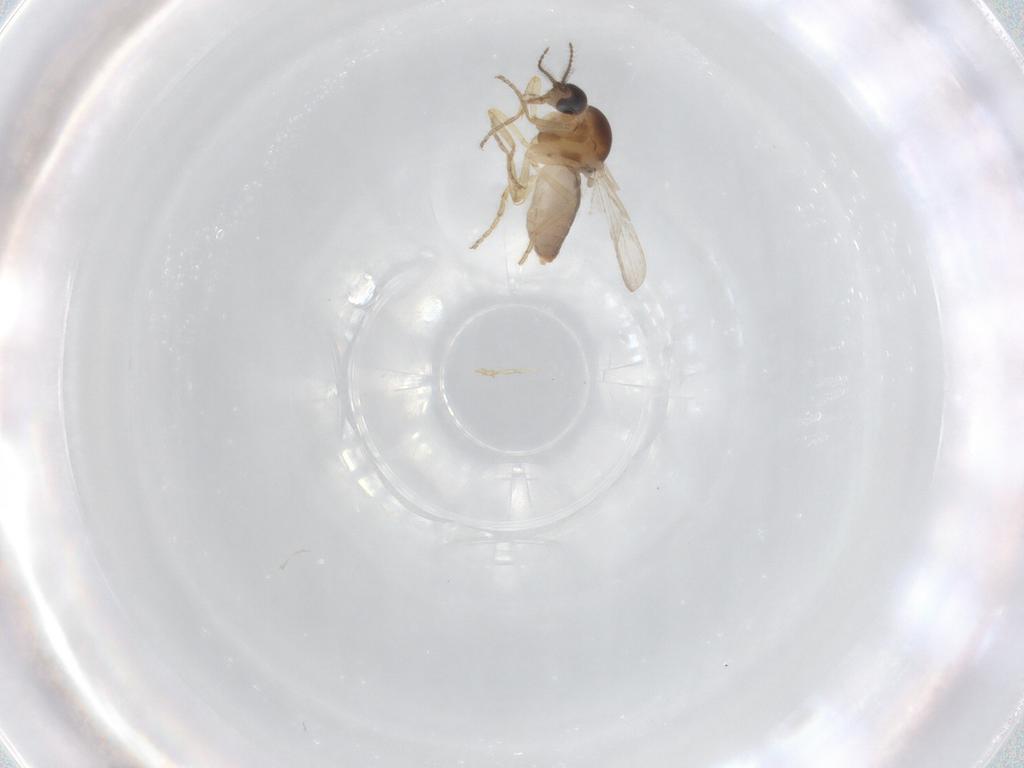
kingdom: Animalia
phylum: Arthropoda
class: Insecta
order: Diptera
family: Ceratopogonidae
